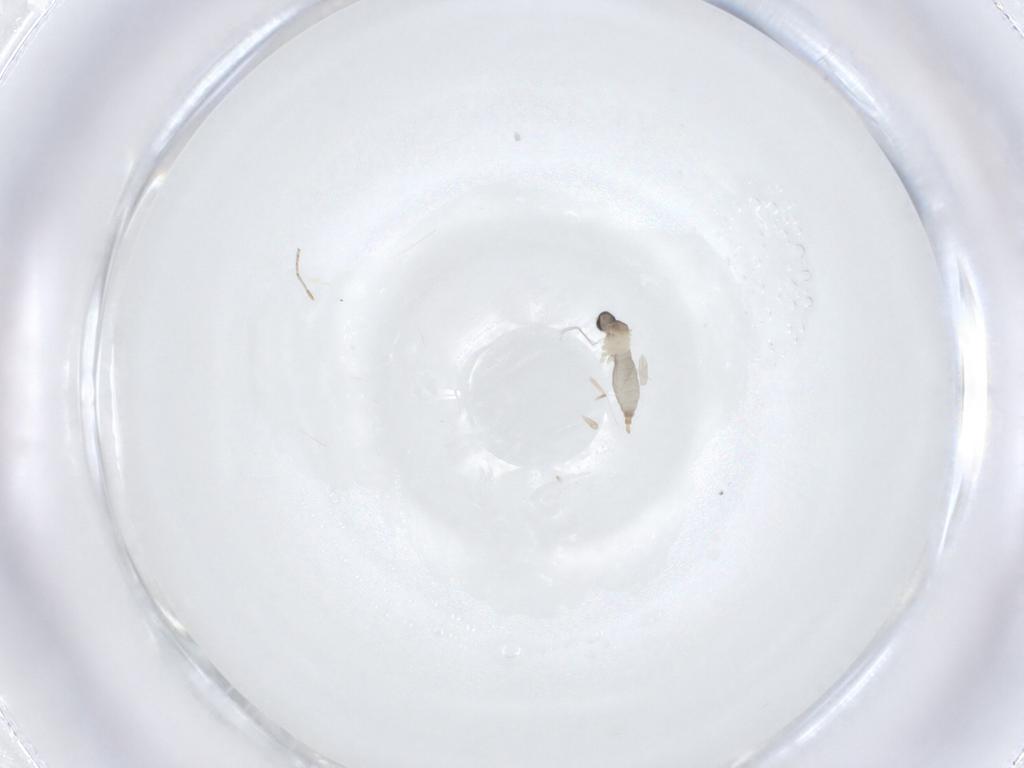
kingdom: Animalia
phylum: Arthropoda
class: Insecta
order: Diptera
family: Ceratopogonidae
